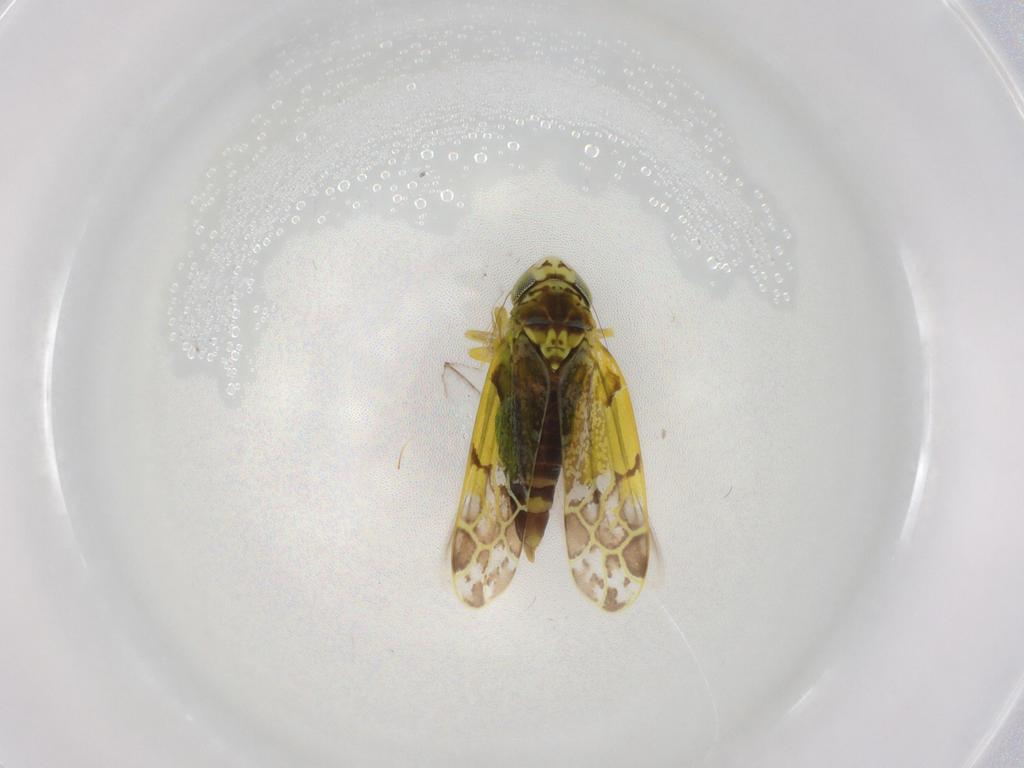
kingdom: Animalia
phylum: Arthropoda
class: Insecta
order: Hemiptera
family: Cicadellidae
